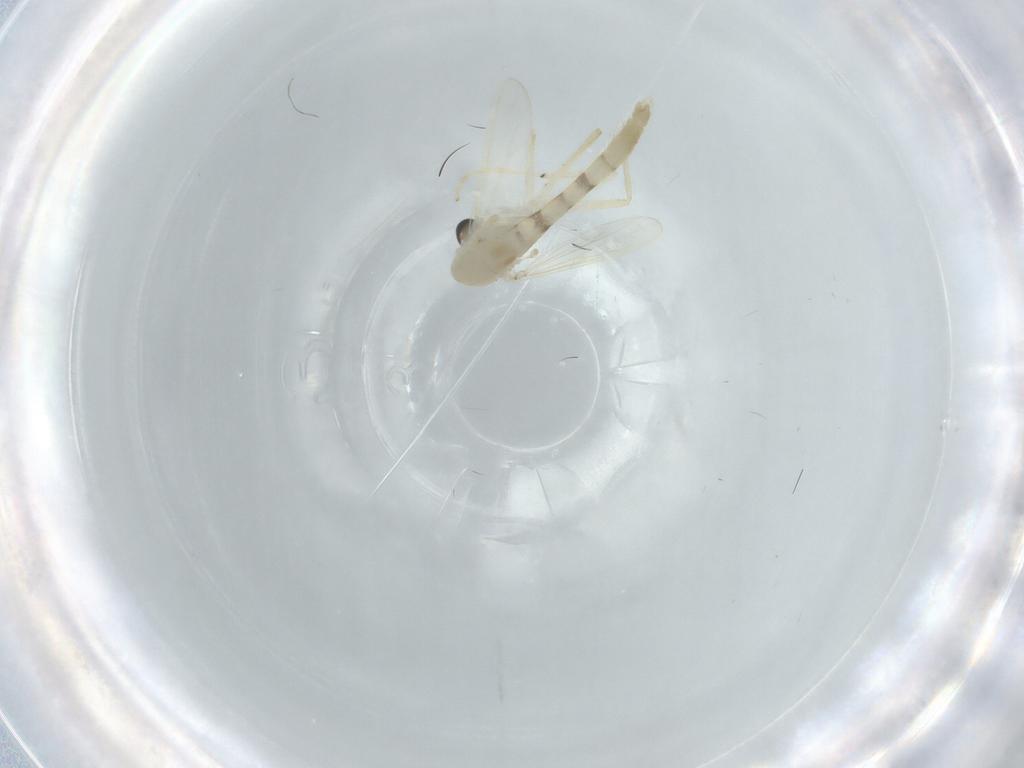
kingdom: Animalia
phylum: Arthropoda
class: Insecta
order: Diptera
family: Chironomidae
